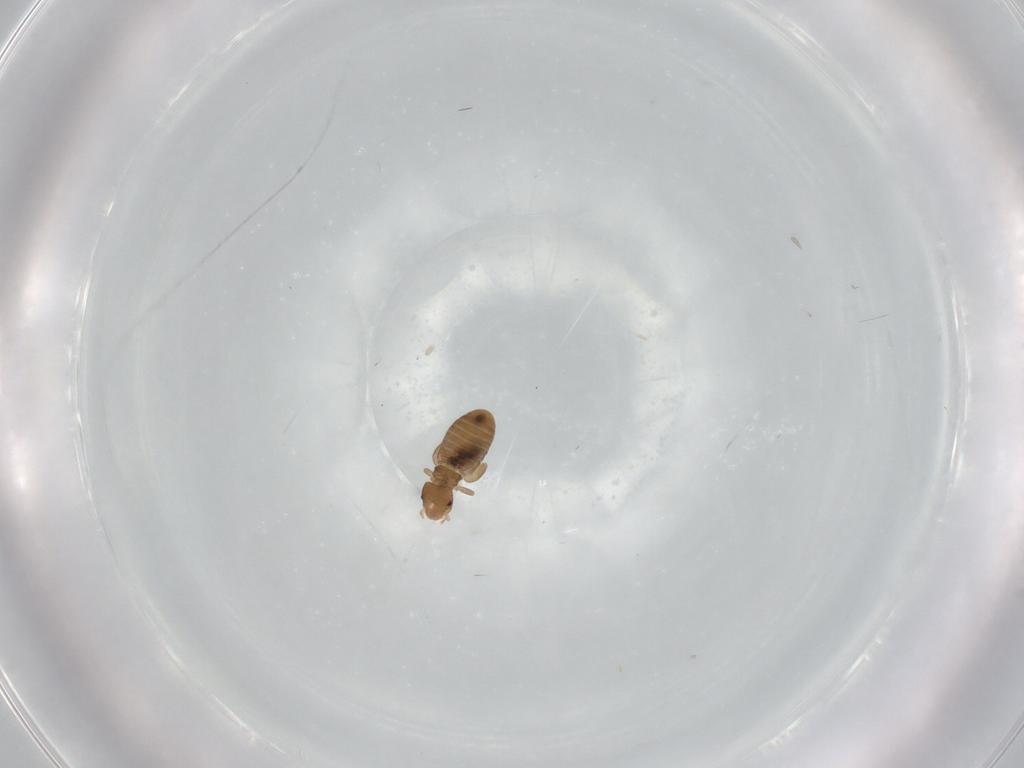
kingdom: Animalia
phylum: Arthropoda
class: Insecta
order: Psocodea
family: Liposcelididae
